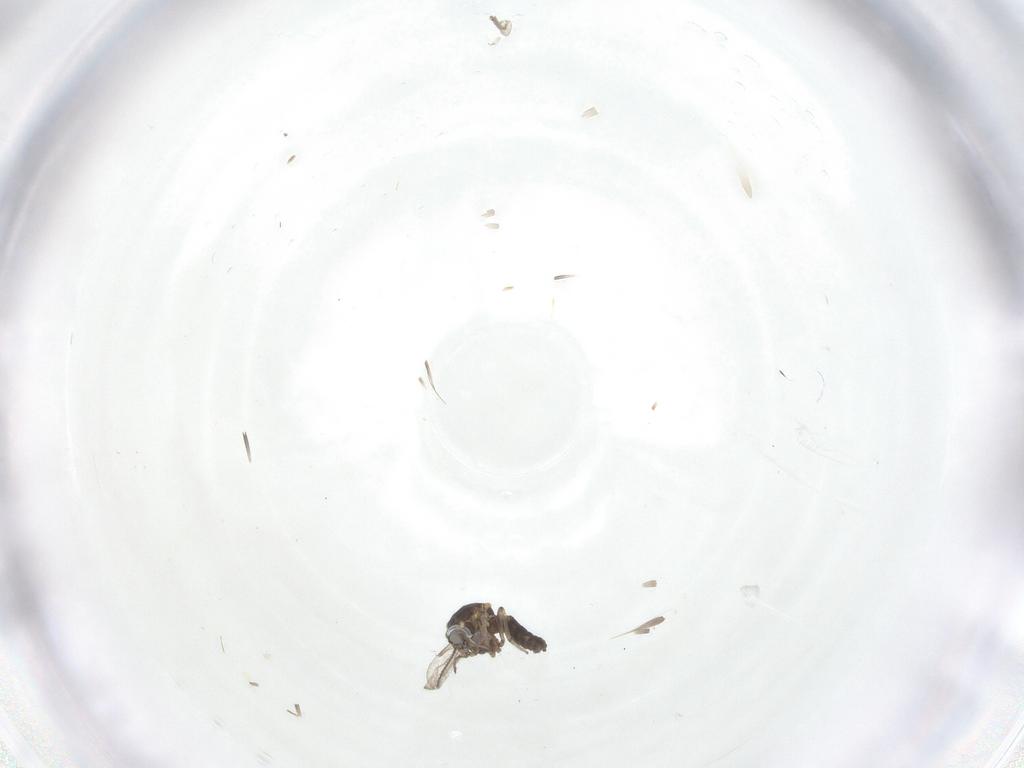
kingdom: Animalia
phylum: Arthropoda
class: Insecta
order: Diptera
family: Ceratopogonidae
